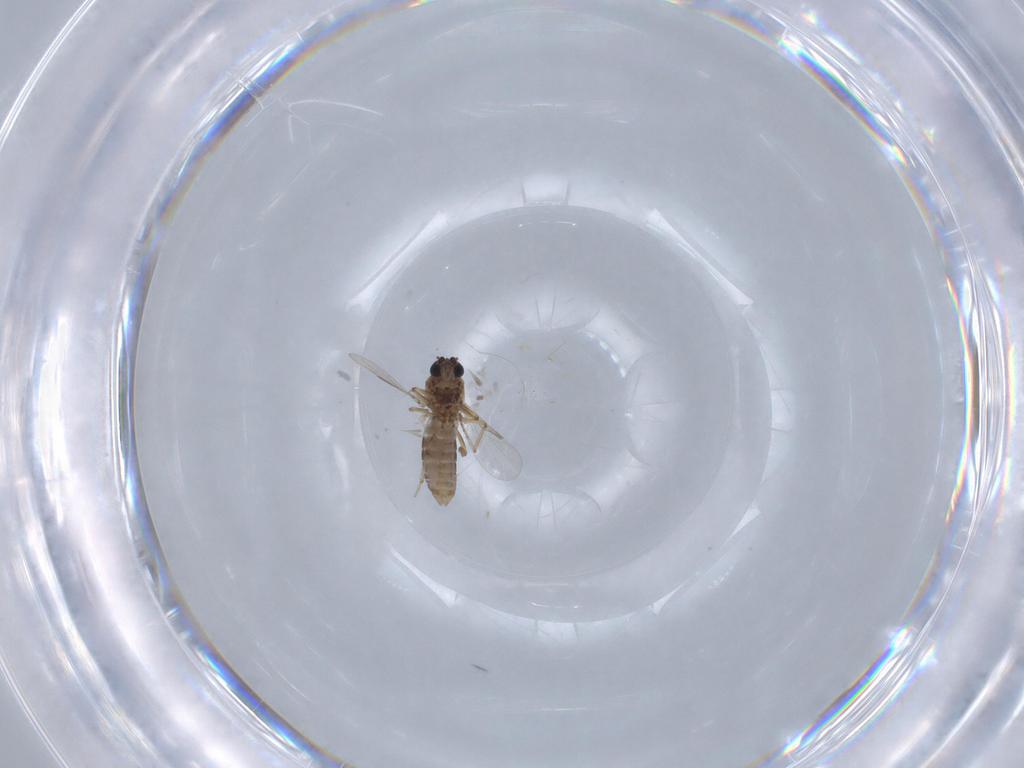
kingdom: Animalia
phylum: Arthropoda
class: Insecta
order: Diptera
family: Ceratopogonidae
